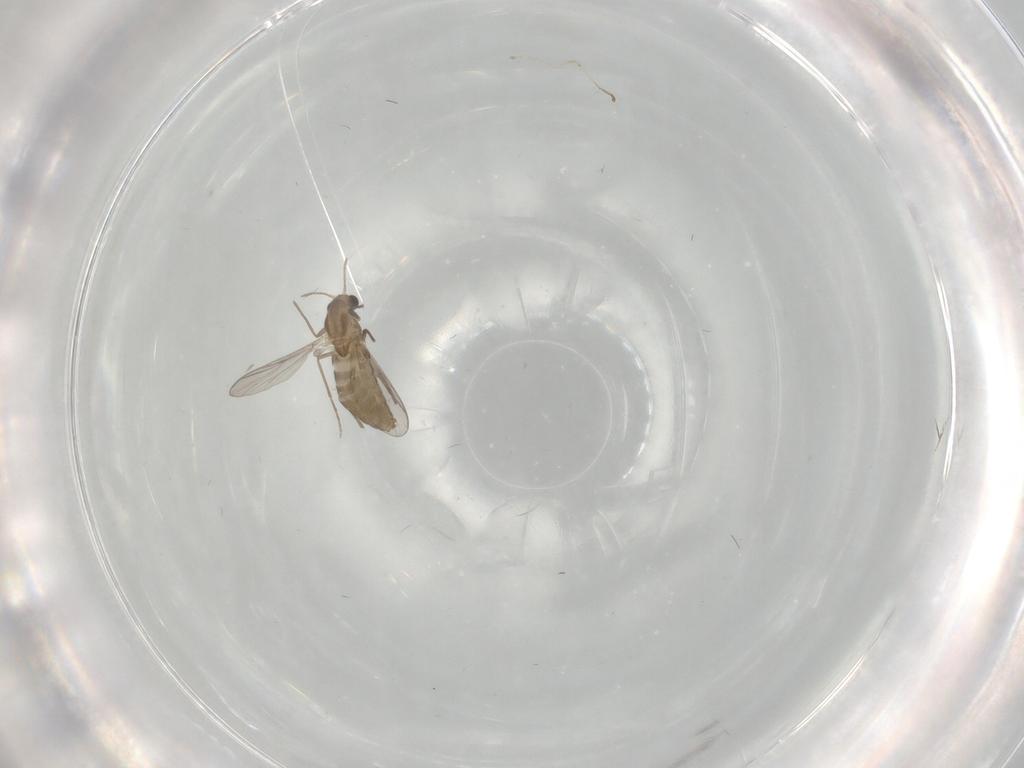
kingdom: Animalia
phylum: Arthropoda
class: Insecta
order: Diptera
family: Chironomidae
